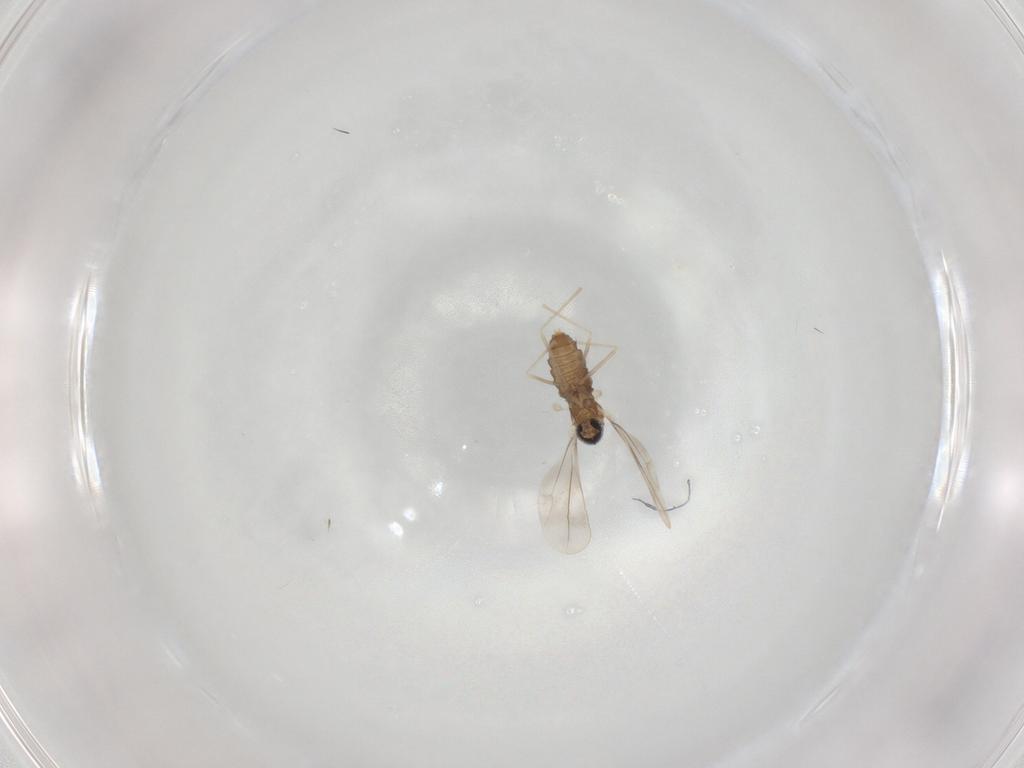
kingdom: Animalia
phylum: Arthropoda
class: Insecta
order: Diptera
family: Cecidomyiidae
